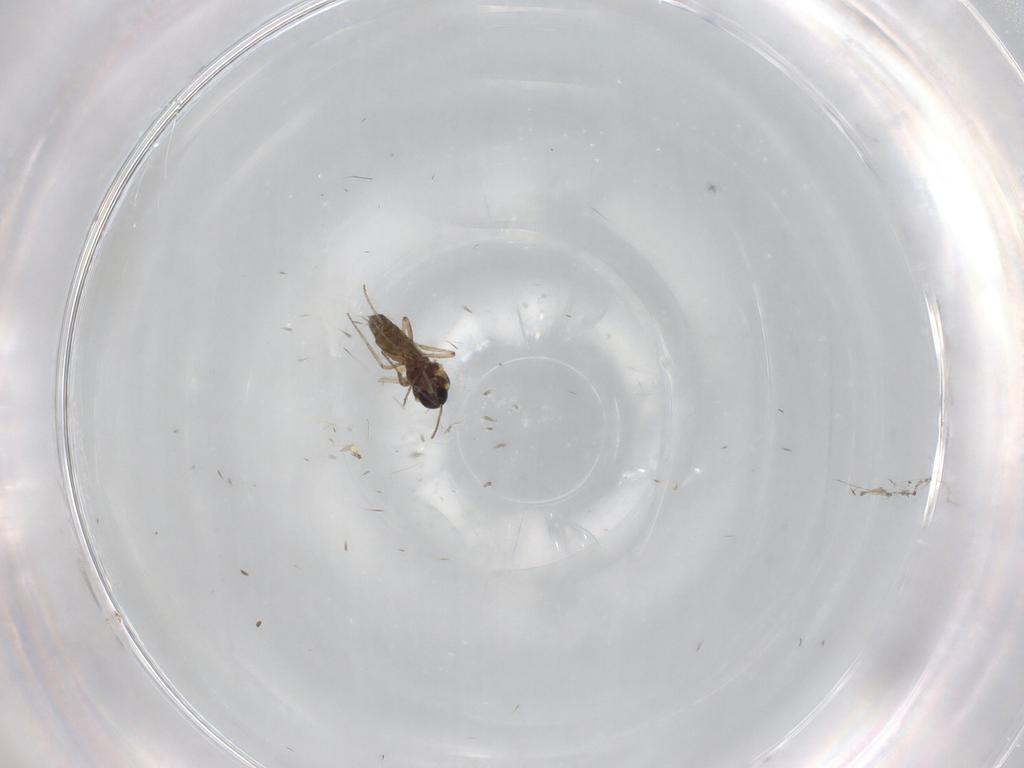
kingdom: Animalia
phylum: Arthropoda
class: Insecta
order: Diptera
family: Ceratopogonidae
